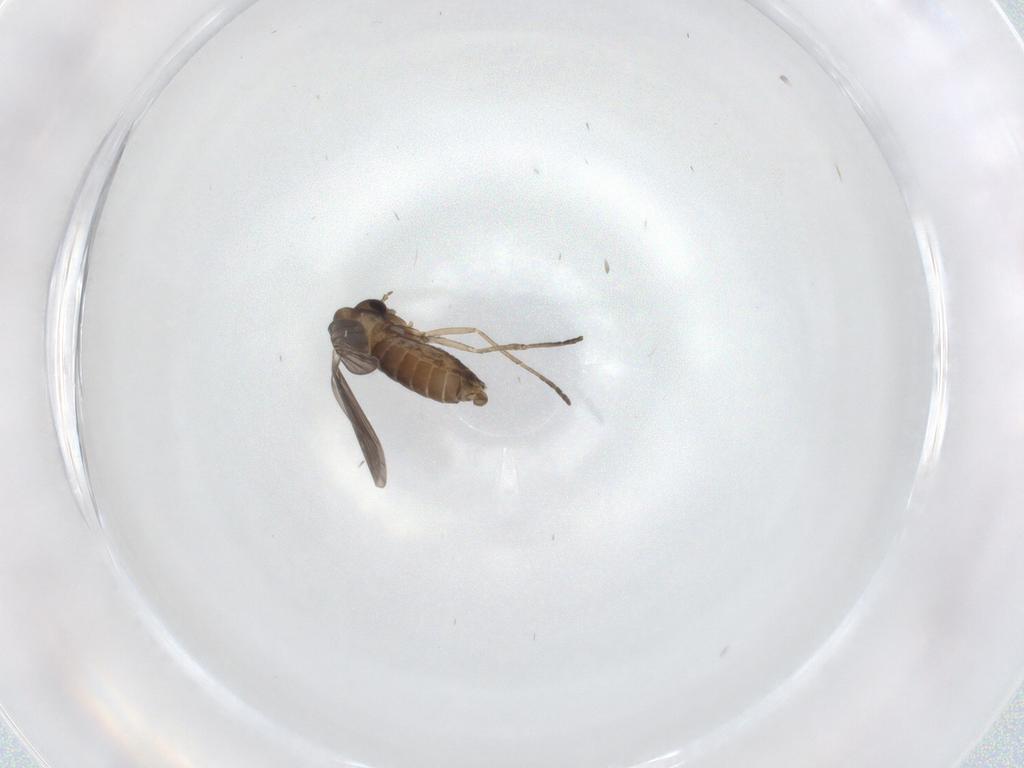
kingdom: Animalia
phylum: Arthropoda
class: Insecta
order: Diptera
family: Chironomidae
